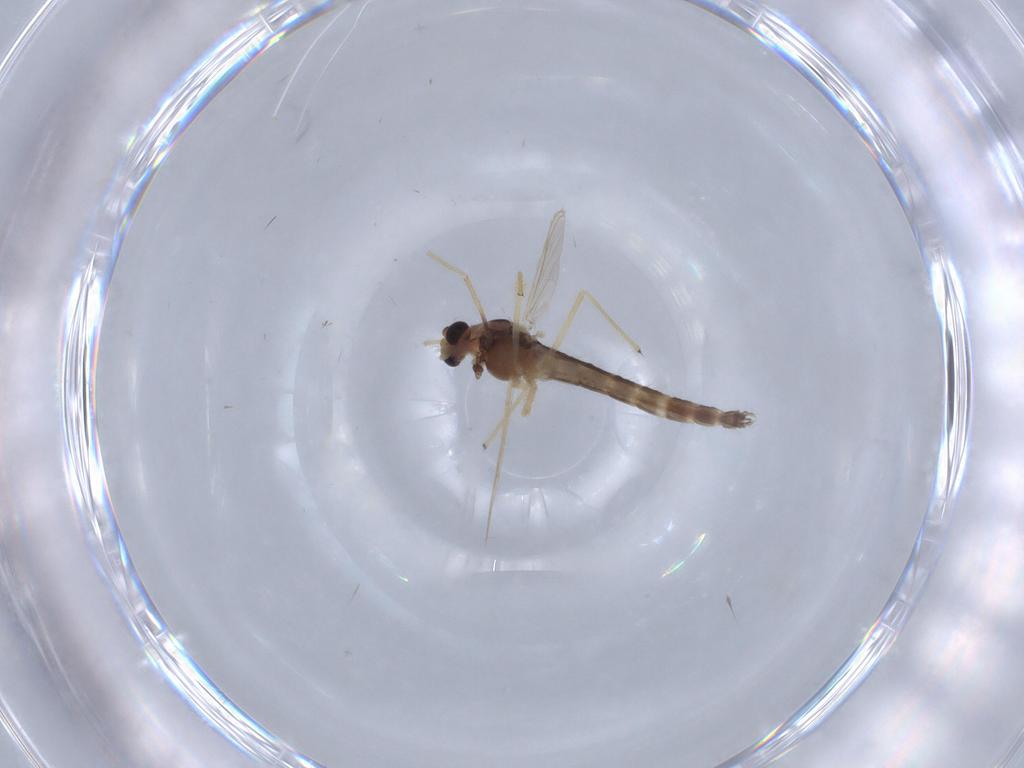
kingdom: Animalia
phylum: Arthropoda
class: Insecta
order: Diptera
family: Chironomidae
